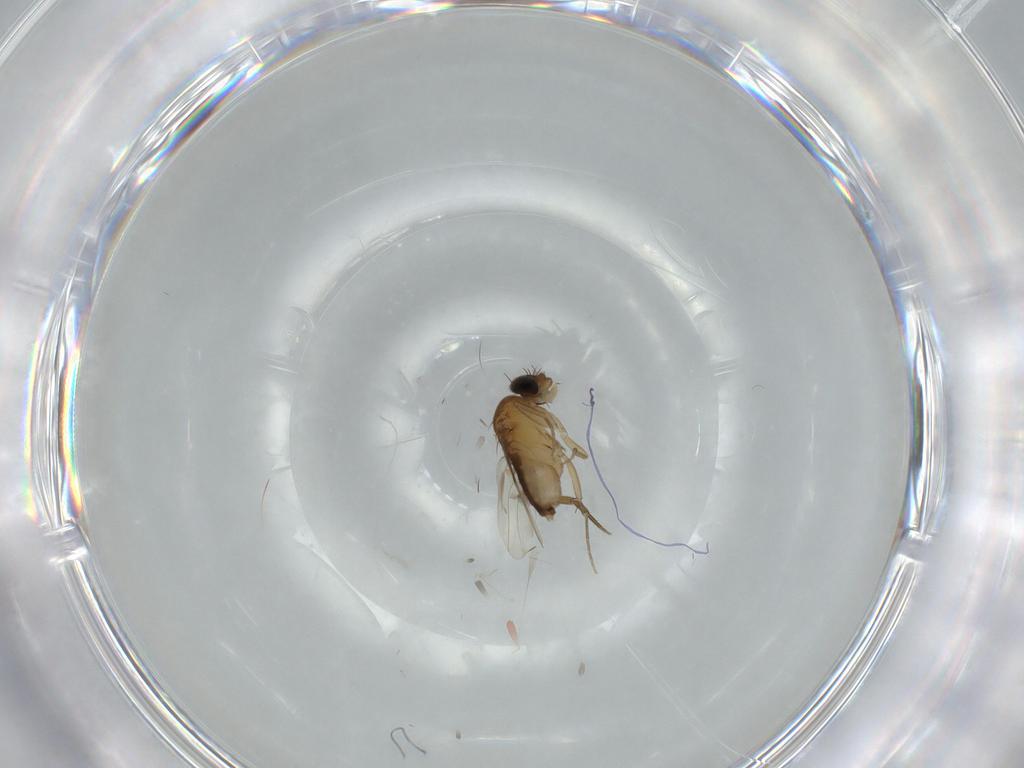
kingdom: Animalia
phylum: Arthropoda
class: Insecta
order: Diptera
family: Phoridae
